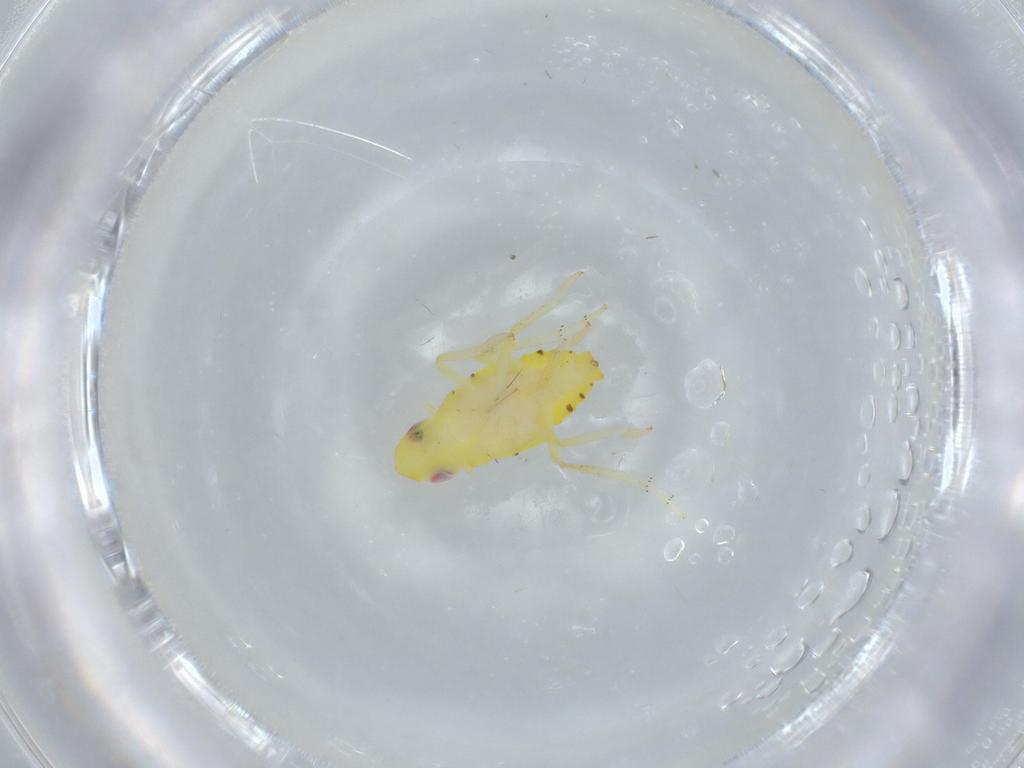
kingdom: Animalia
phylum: Arthropoda
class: Insecta
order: Hemiptera
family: Tropiduchidae
